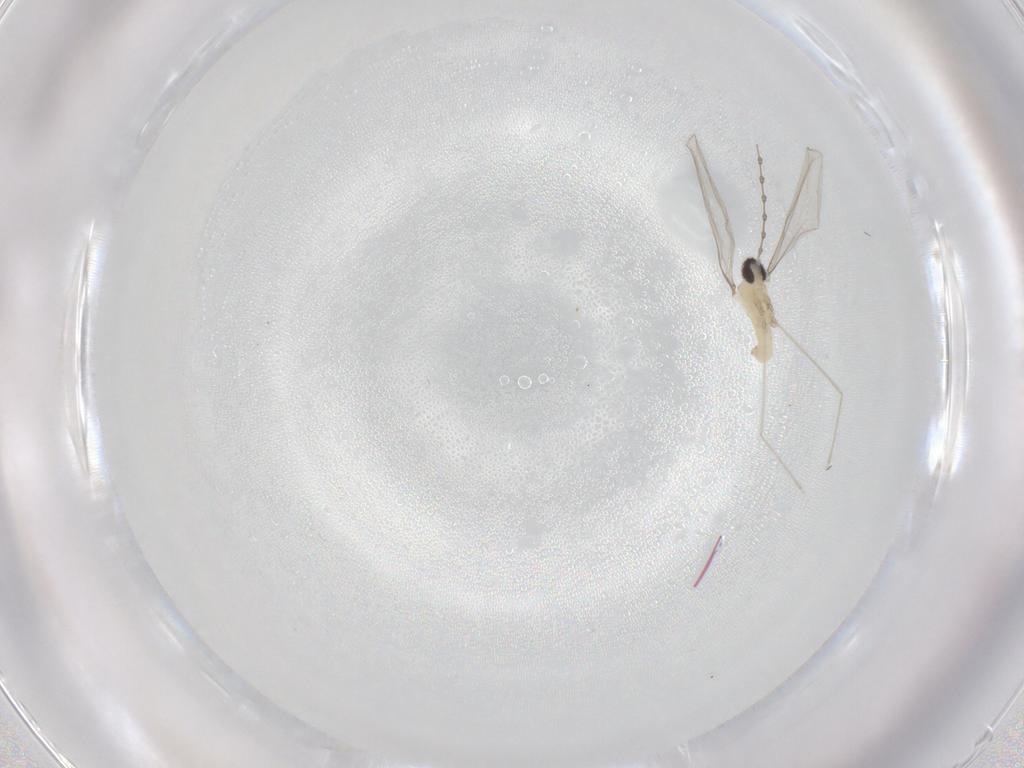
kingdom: Animalia
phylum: Arthropoda
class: Insecta
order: Diptera
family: Cecidomyiidae
